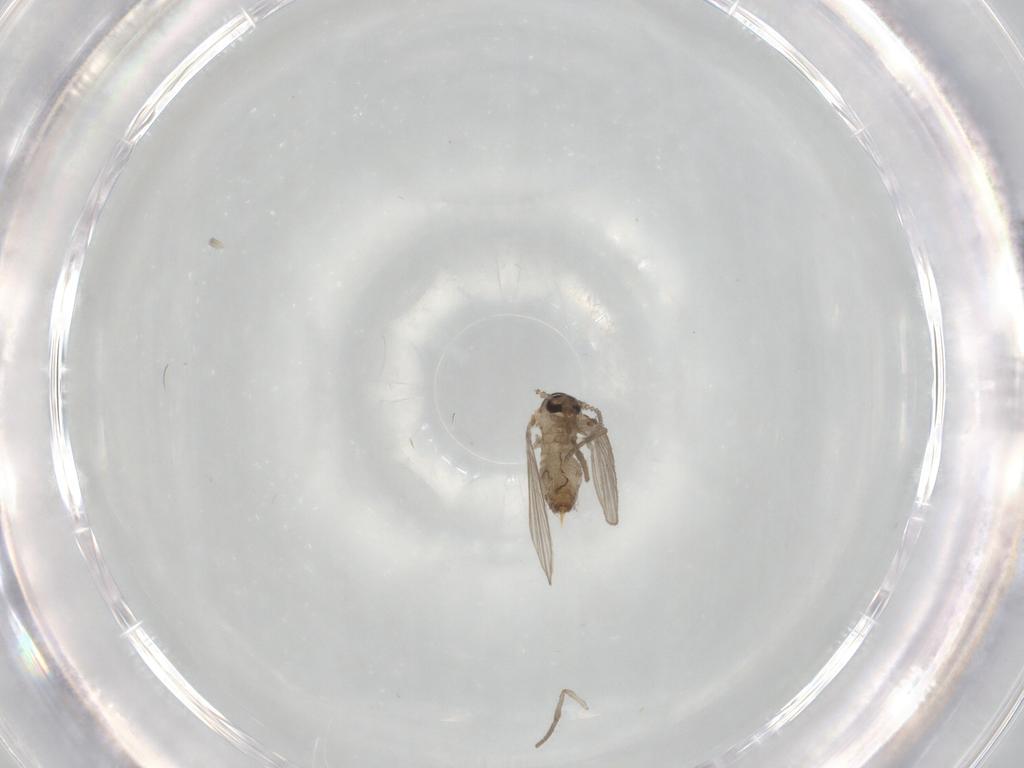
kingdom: Animalia
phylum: Arthropoda
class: Insecta
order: Diptera
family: Psychodidae
